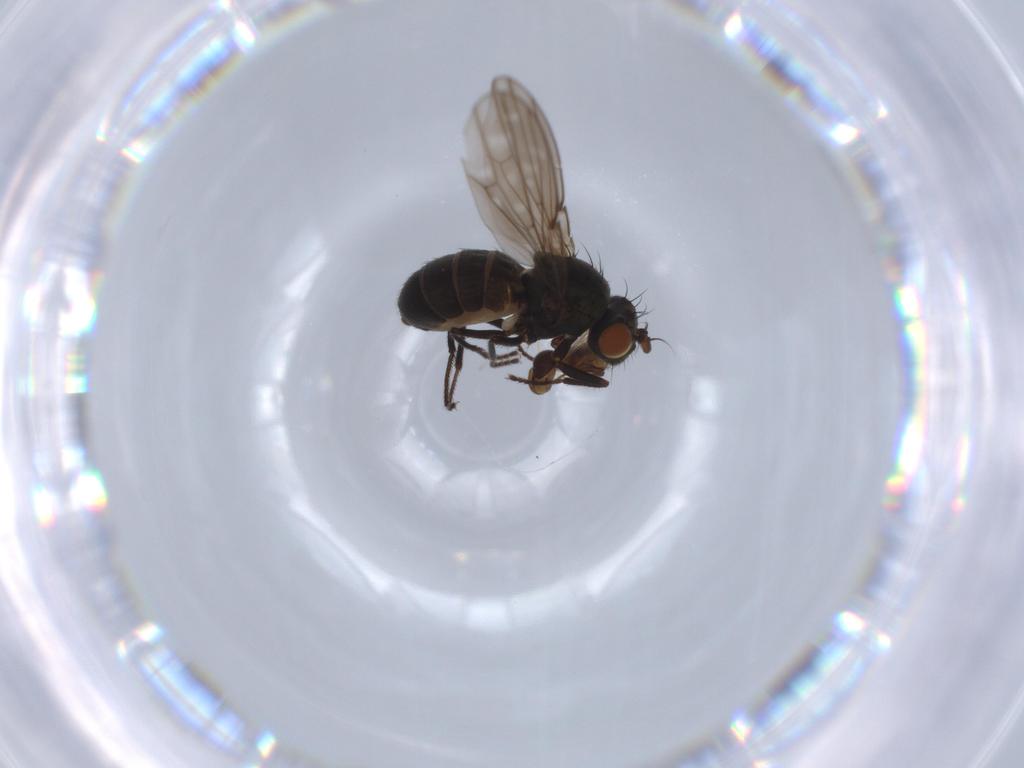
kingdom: Animalia
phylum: Arthropoda
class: Insecta
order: Diptera
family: Ephydridae
